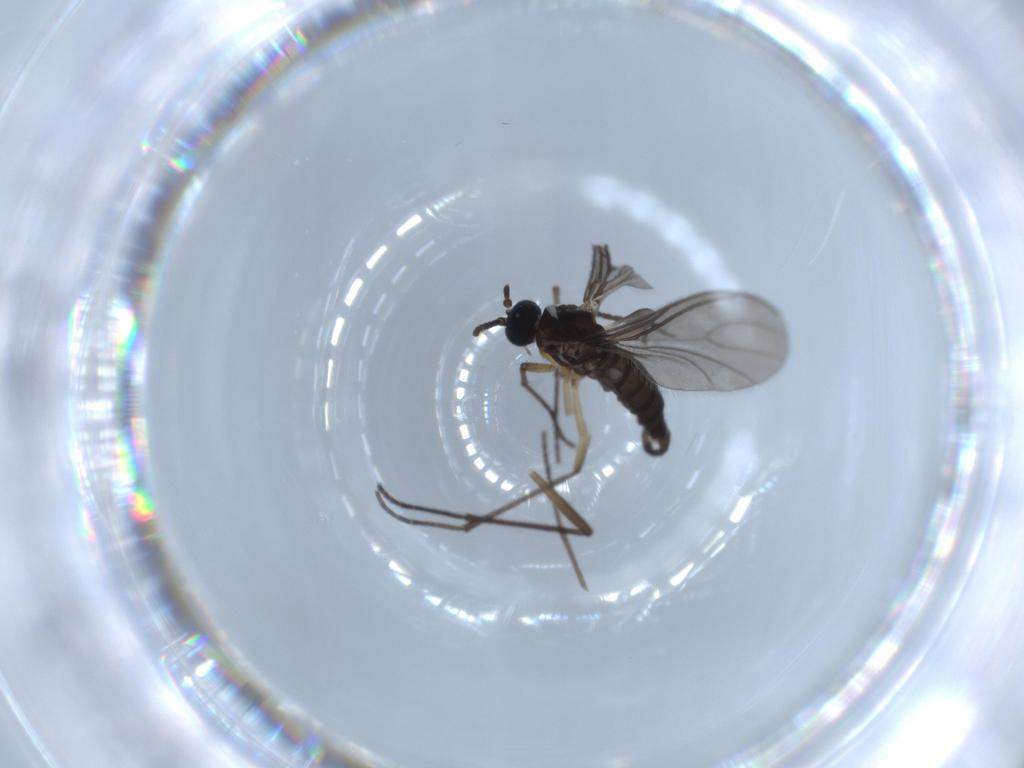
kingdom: Animalia
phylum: Arthropoda
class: Insecta
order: Diptera
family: Sciaridae
